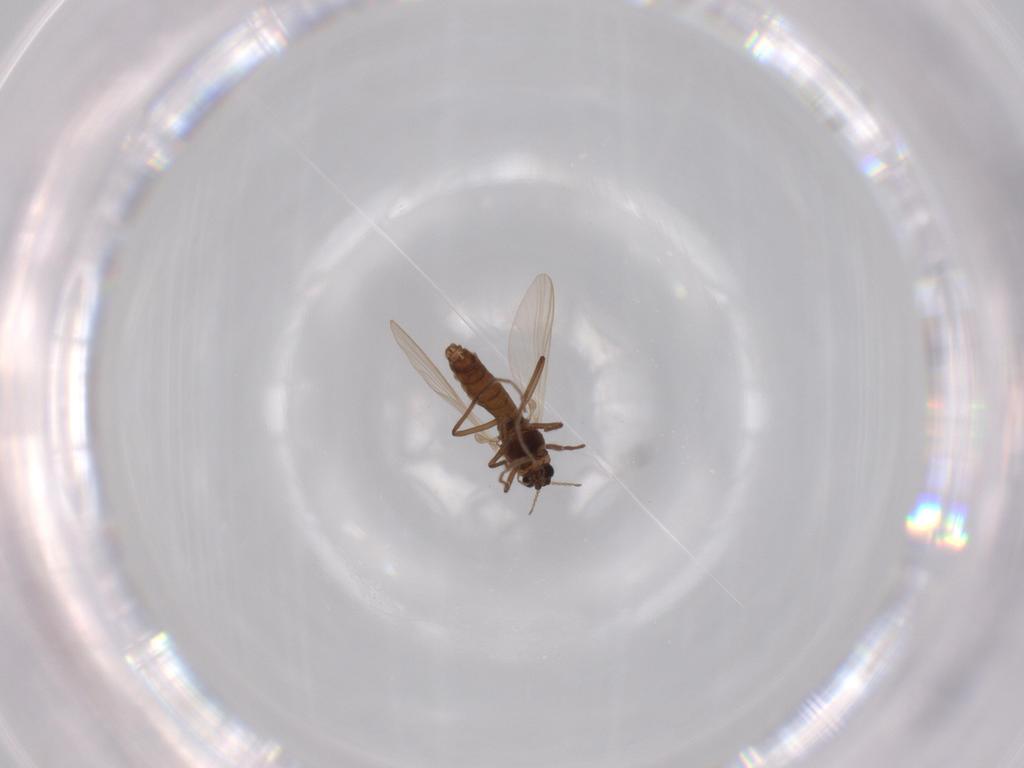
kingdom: Animalia
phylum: Arthropoda
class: Insecta
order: Diptera
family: Chironomidae
